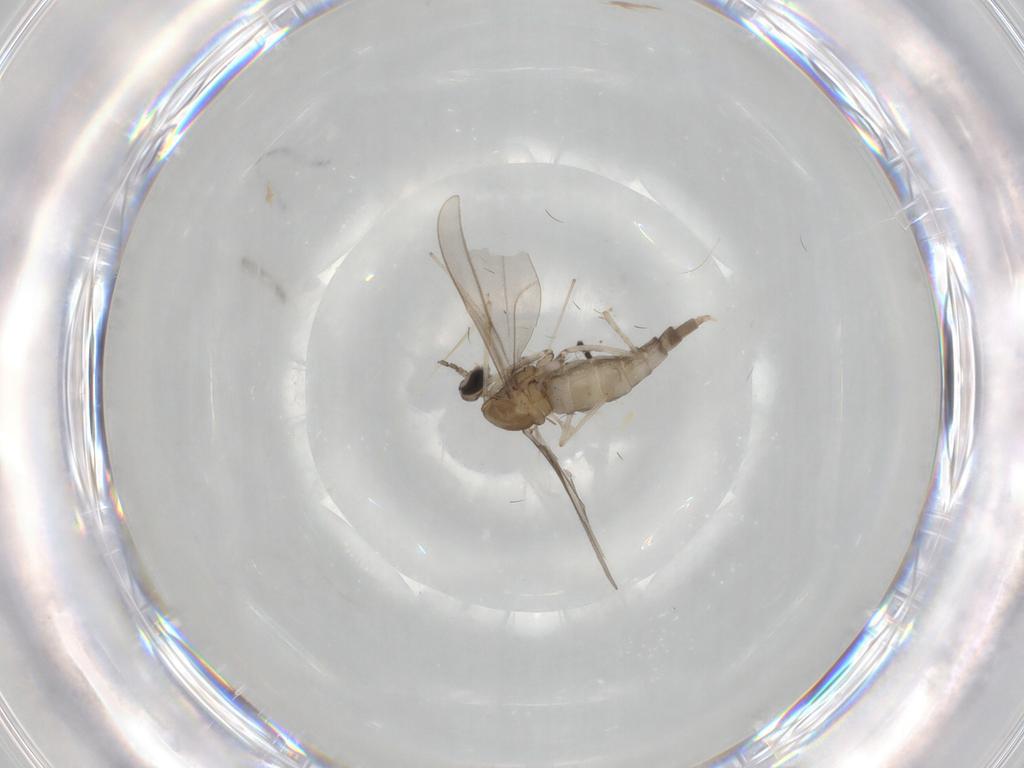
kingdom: Animalia
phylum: Arthropoda
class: Insecta
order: Diptera
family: Cecidomyiidae
